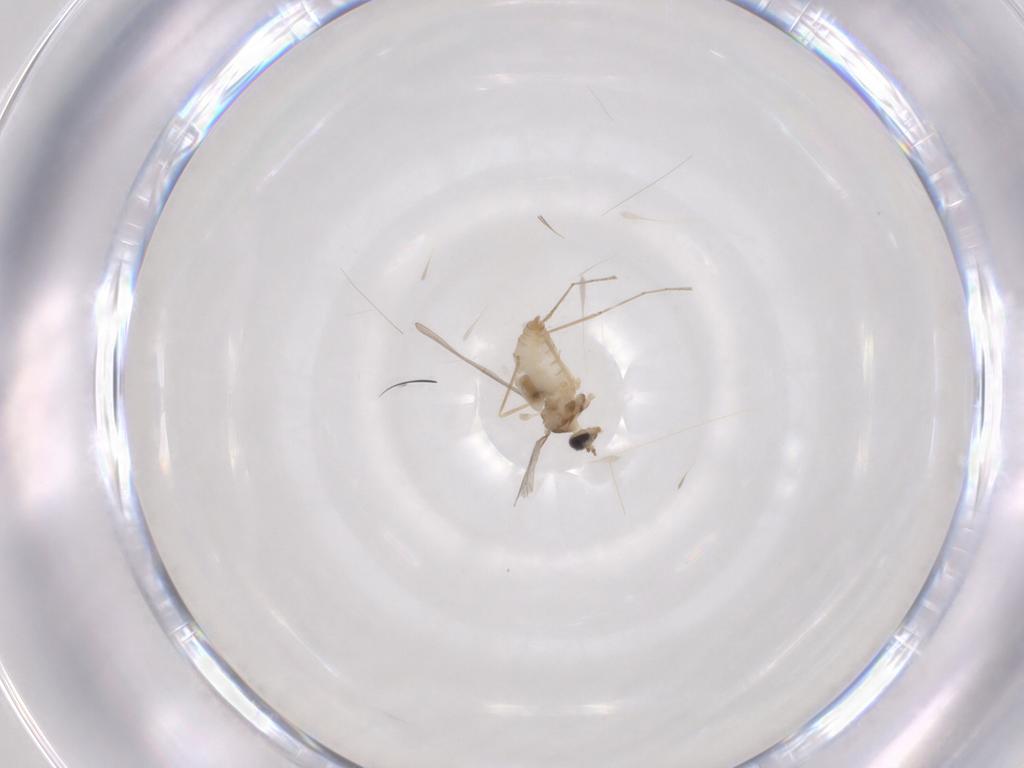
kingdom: Animalia
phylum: Arthropoda
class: Insecta
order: Diptera
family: Cecidomyiidae
